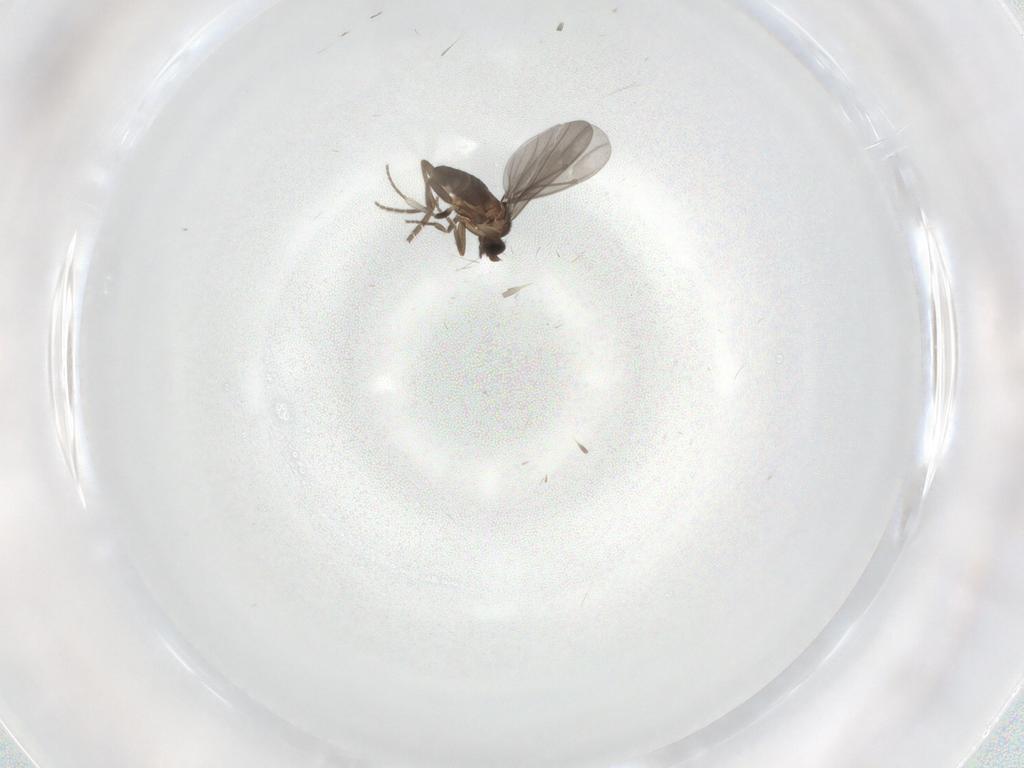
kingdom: Animalia
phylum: Arthropoda
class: Insecta
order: Diptera
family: Phoridae
